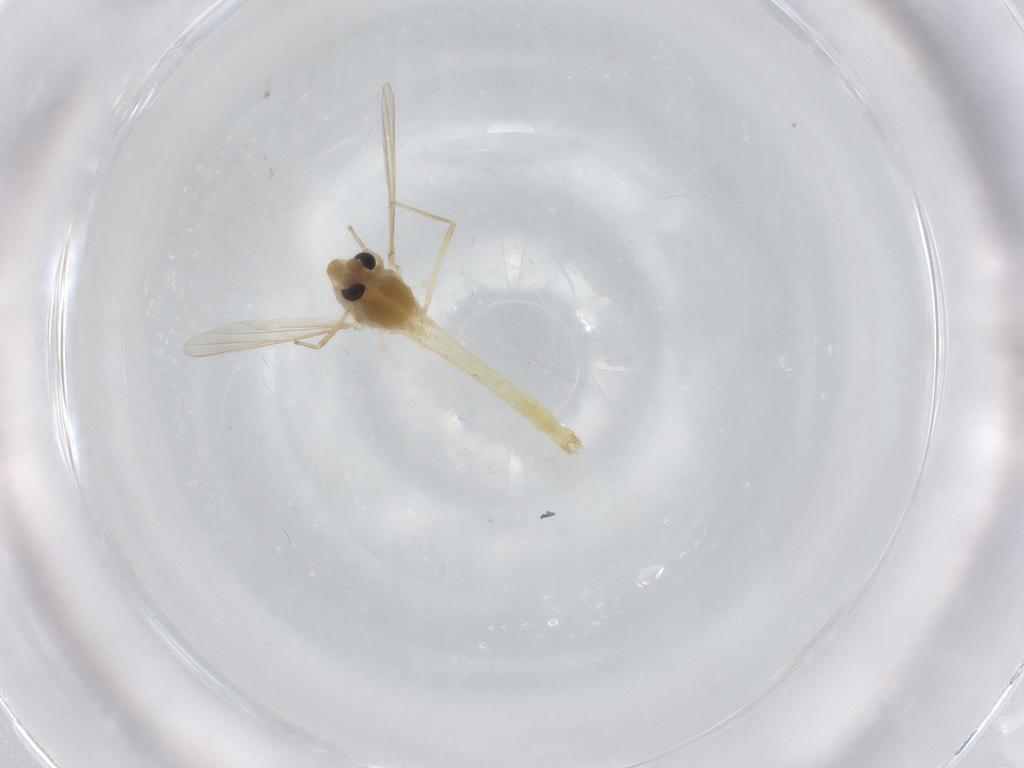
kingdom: Animalia
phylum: Arthropoda
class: Insecta
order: Diptera
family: Chironomidae
